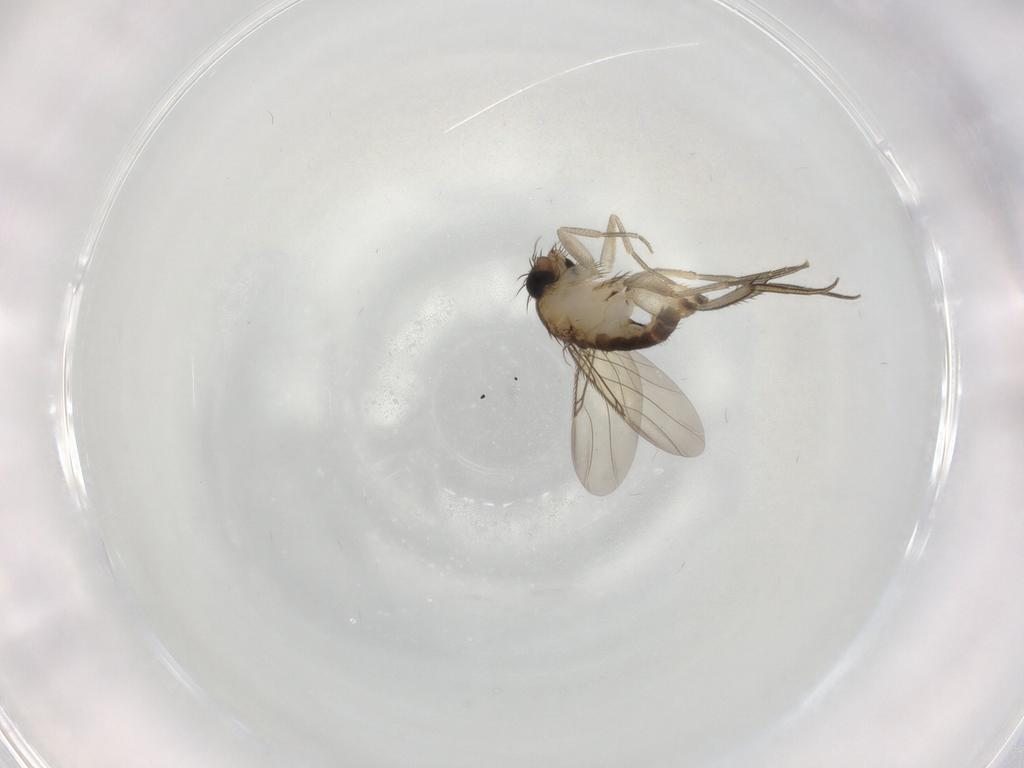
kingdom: Animalia
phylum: Arthropoda
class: Insecta
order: Diptera
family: Phoridae
